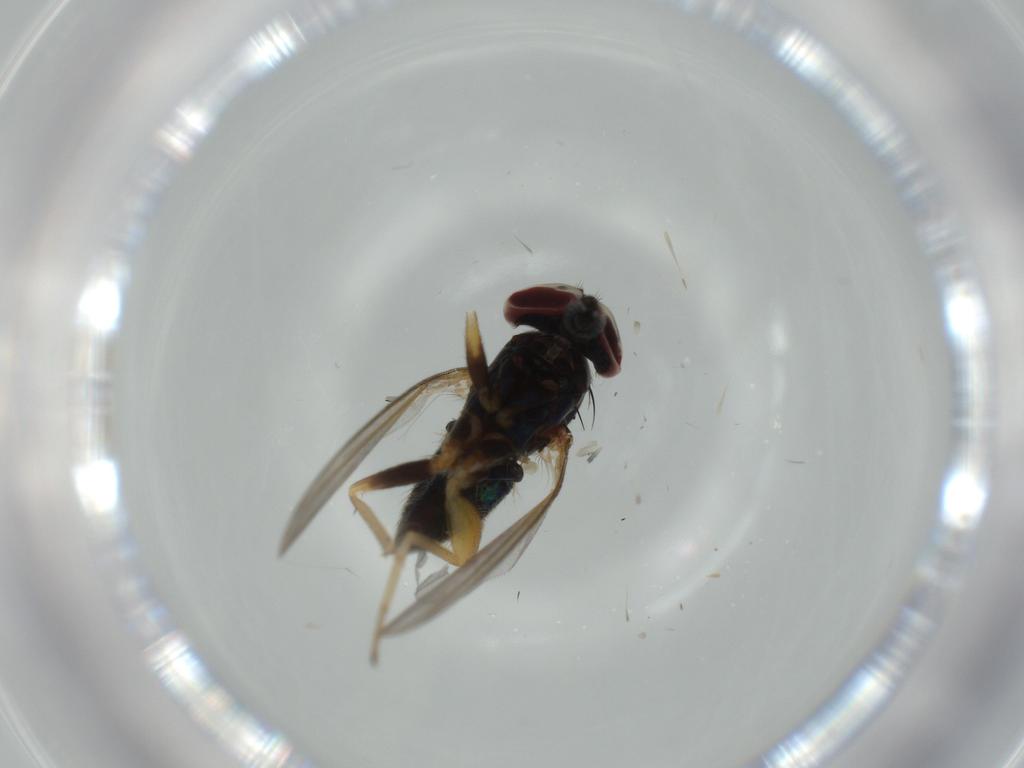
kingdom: Animalia
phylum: Arthropoda
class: Insecta
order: Diptera
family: Dolichopodidae
